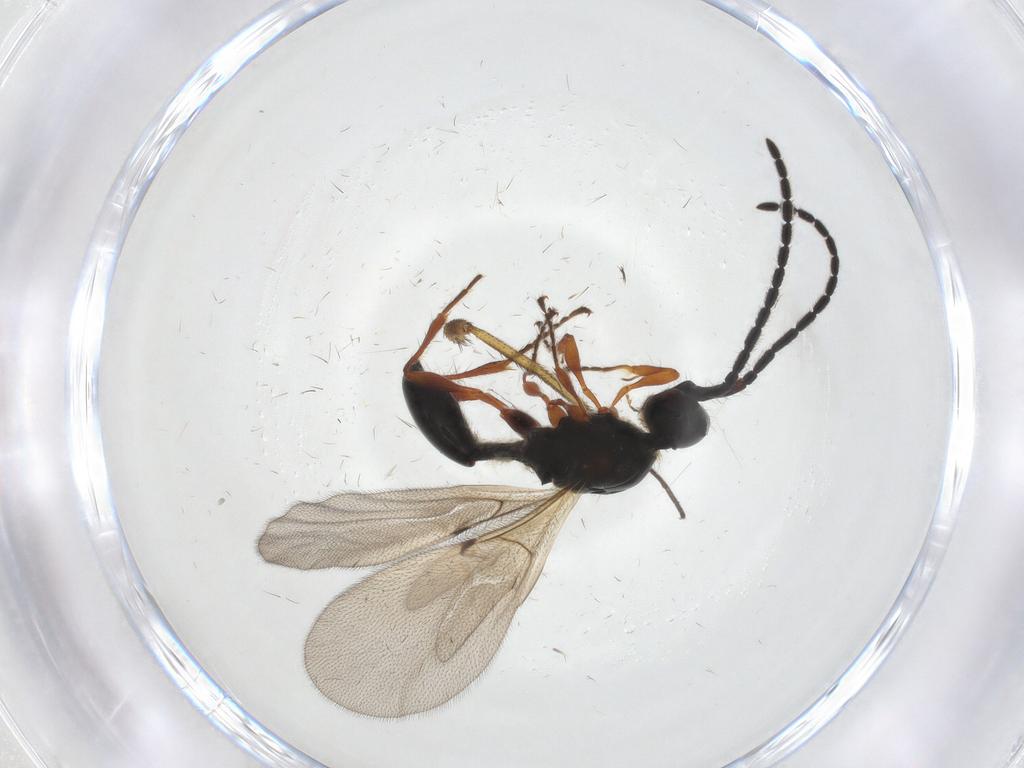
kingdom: Animalia
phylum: Arthropoda
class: Insecta
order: Hymenoptera
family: Diapriidae
